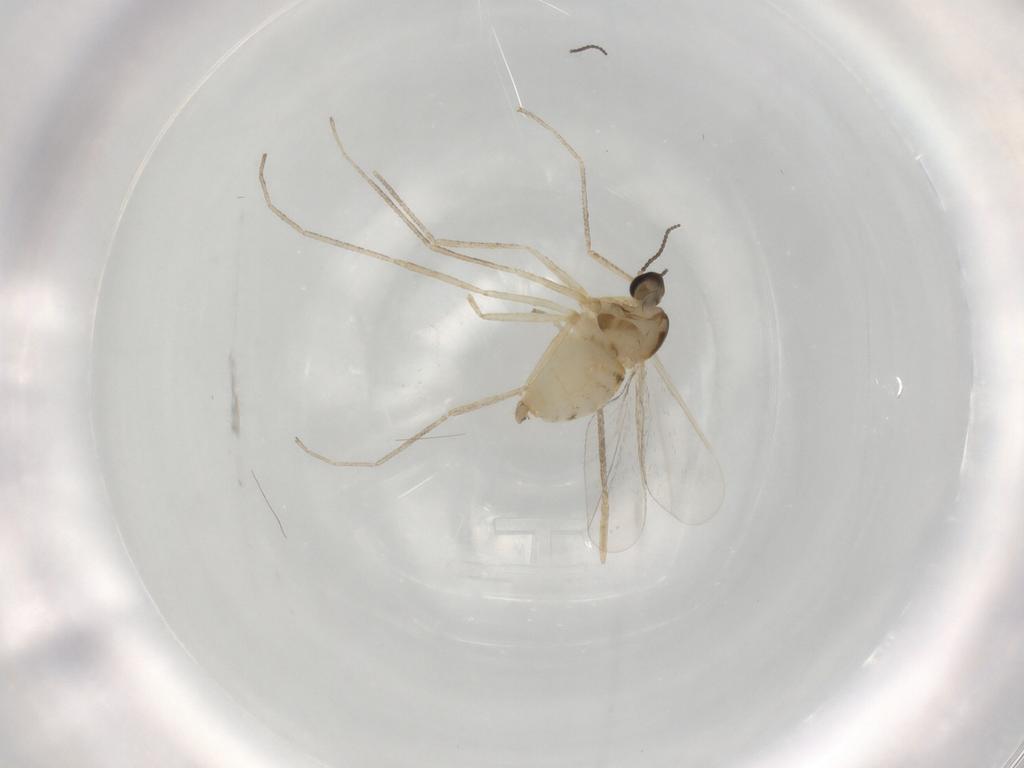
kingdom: Animalia
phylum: Arthropoda
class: Insecta
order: Diptera
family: Cecidomyiidae
